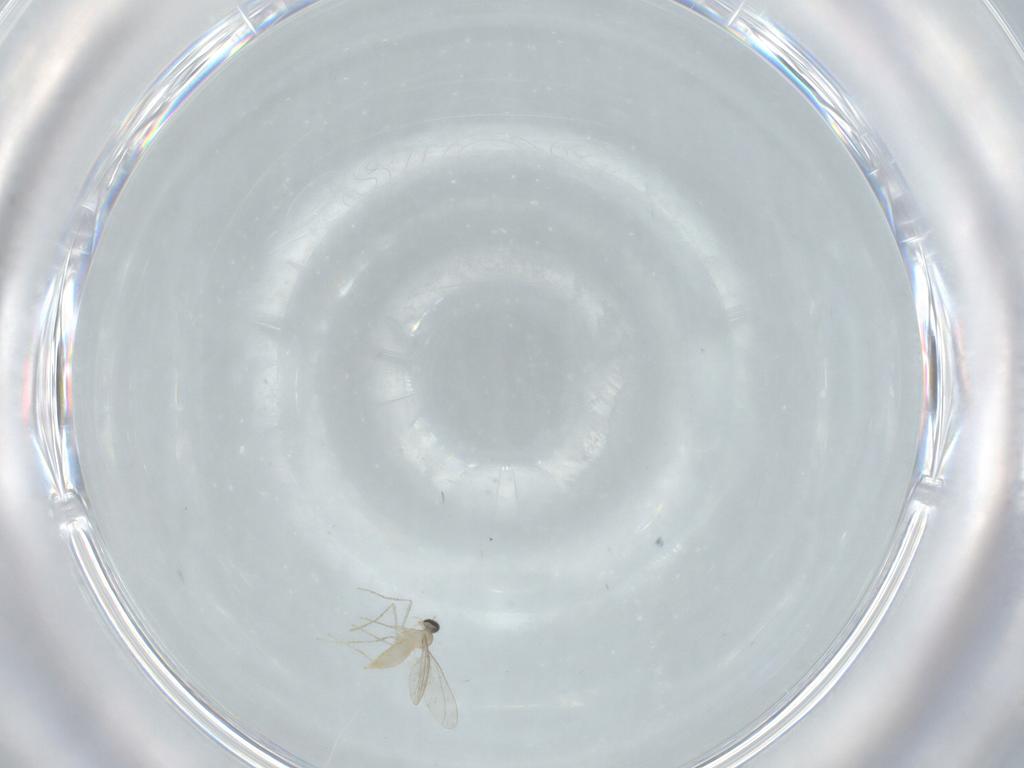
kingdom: Animalia
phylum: Arthropoda
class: Insecta
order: Diptera
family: Cecidomyiidae
